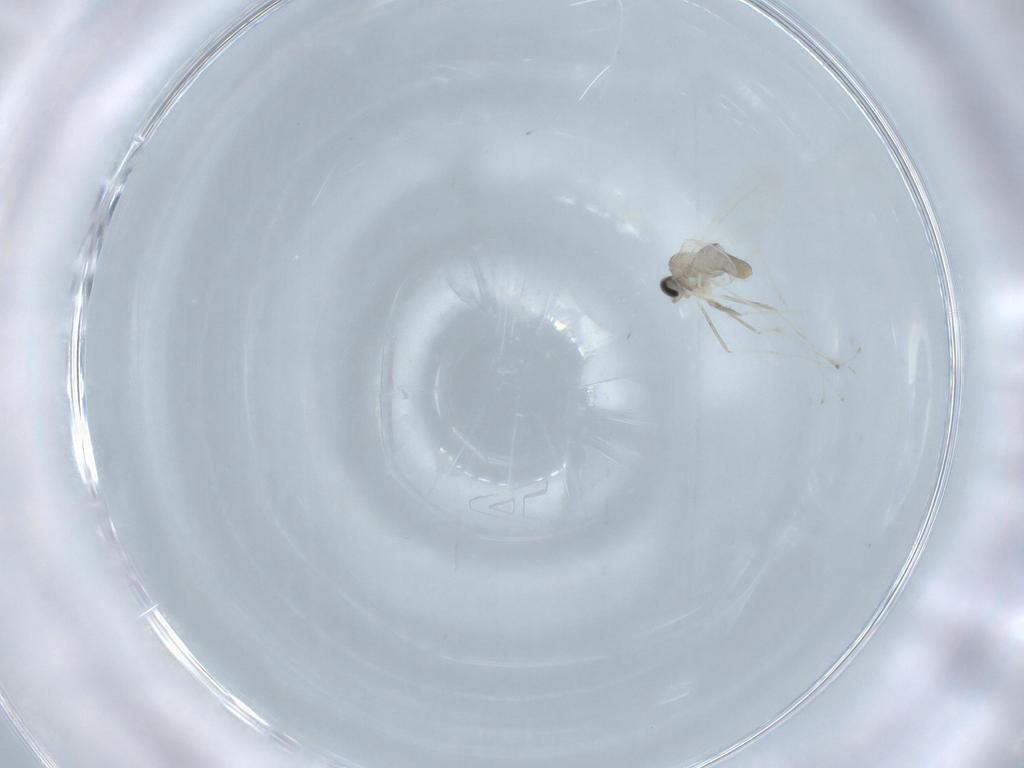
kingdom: Animalia
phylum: Arthropoda
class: Insecta
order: Diptera
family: Cecidomyiidae
